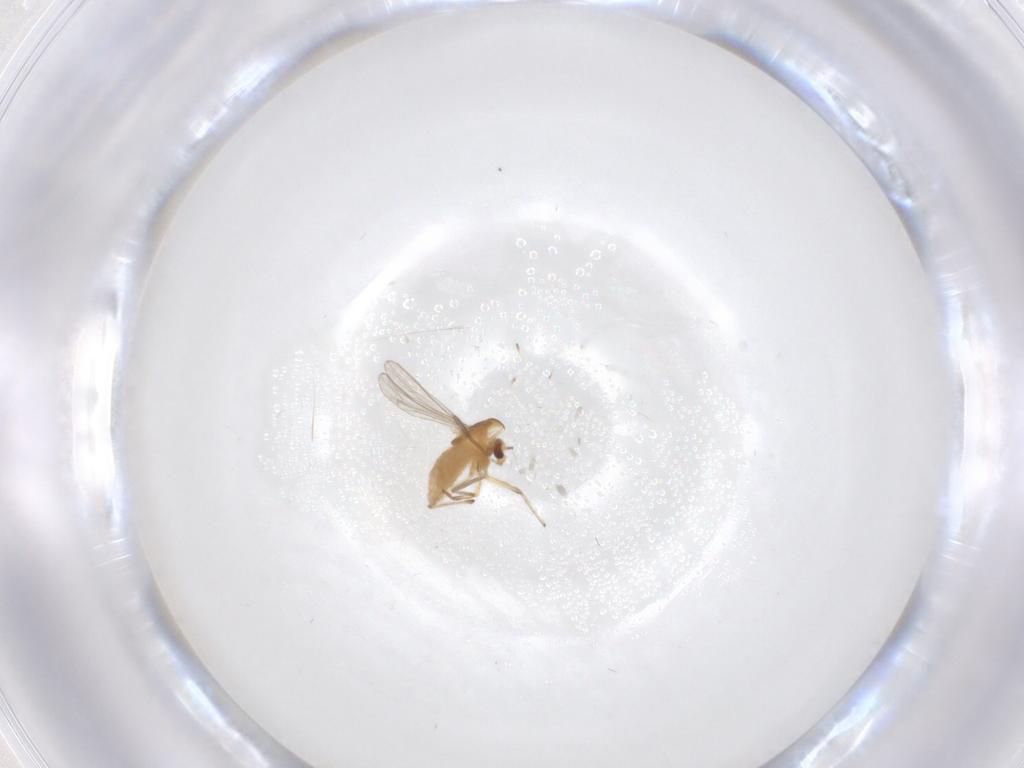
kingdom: Animalia
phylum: Arthropoda
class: Insecta
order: Diptera
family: Chironomidae
